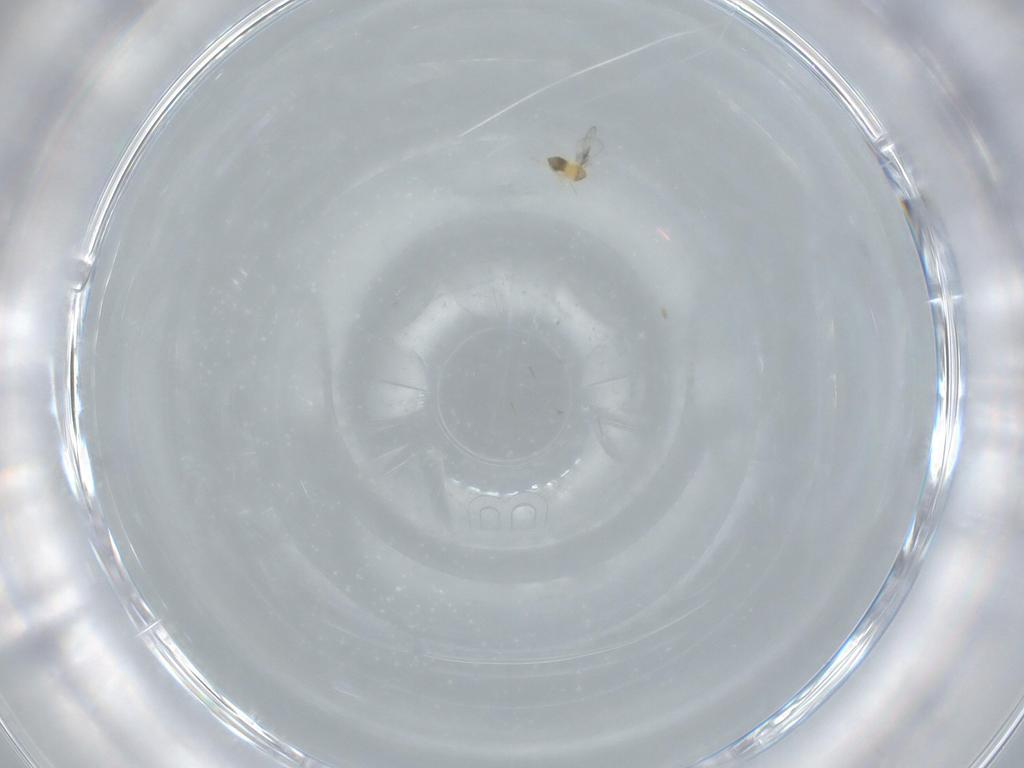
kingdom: Animalia
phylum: Arthropoda
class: Insecta
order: Hymenoptera
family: Trichogrammatidae
